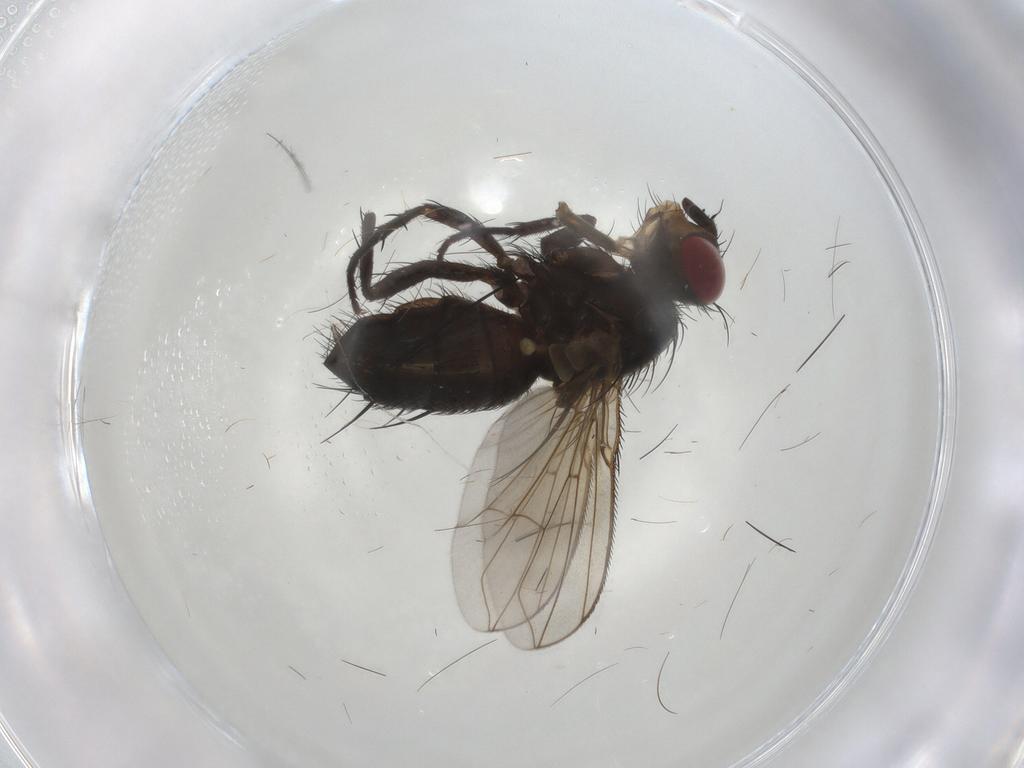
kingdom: Animalia
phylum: Arthropoda
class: Insecta
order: Diptera
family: Calliphoridae
